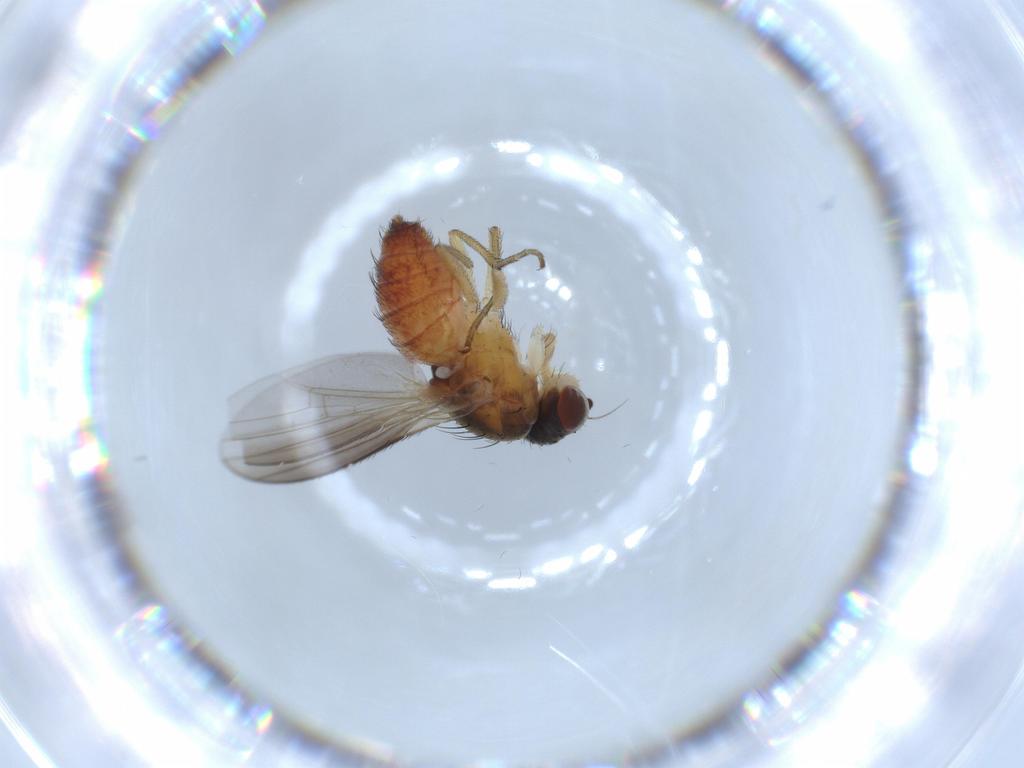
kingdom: Animalia
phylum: Arthropoda
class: Insecta
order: Diptera
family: Heleomyzidae
